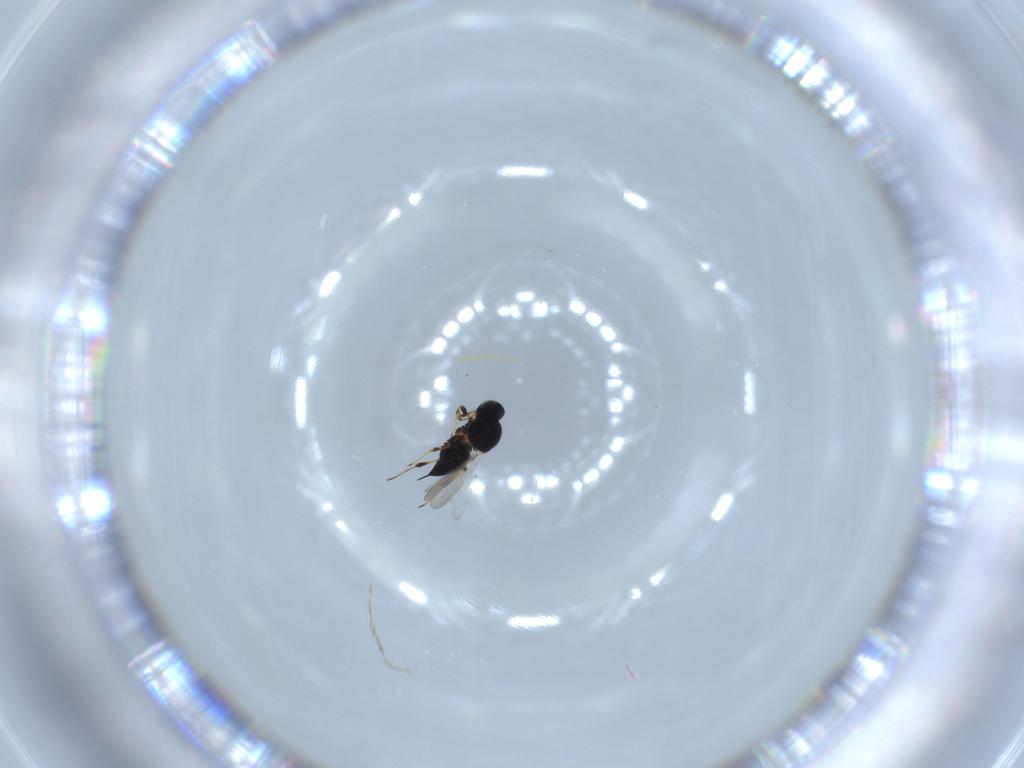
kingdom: Animalia
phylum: Arthropoda
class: Insecta
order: Hymenoptera
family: Platygastridae
